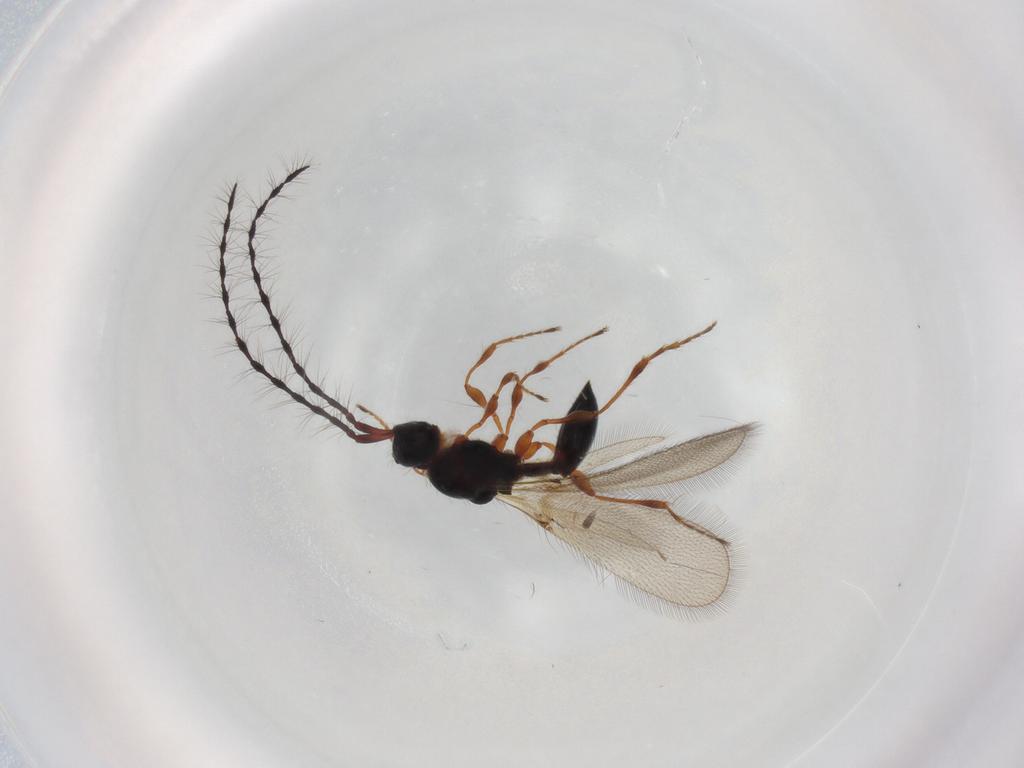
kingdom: Animalia
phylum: Arthropoda
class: Insecta
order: Hymenoptera
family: Diapriidae
